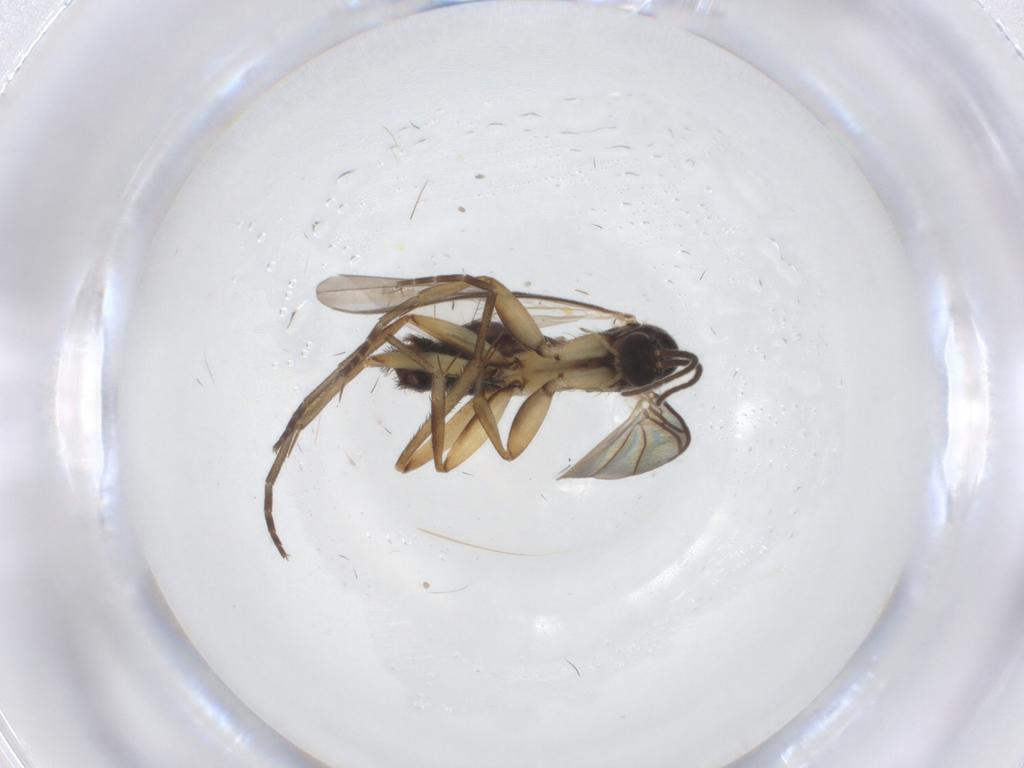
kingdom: Animalia
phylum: Arthropoda
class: Insecta
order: Diptera
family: Mycetophilidae
